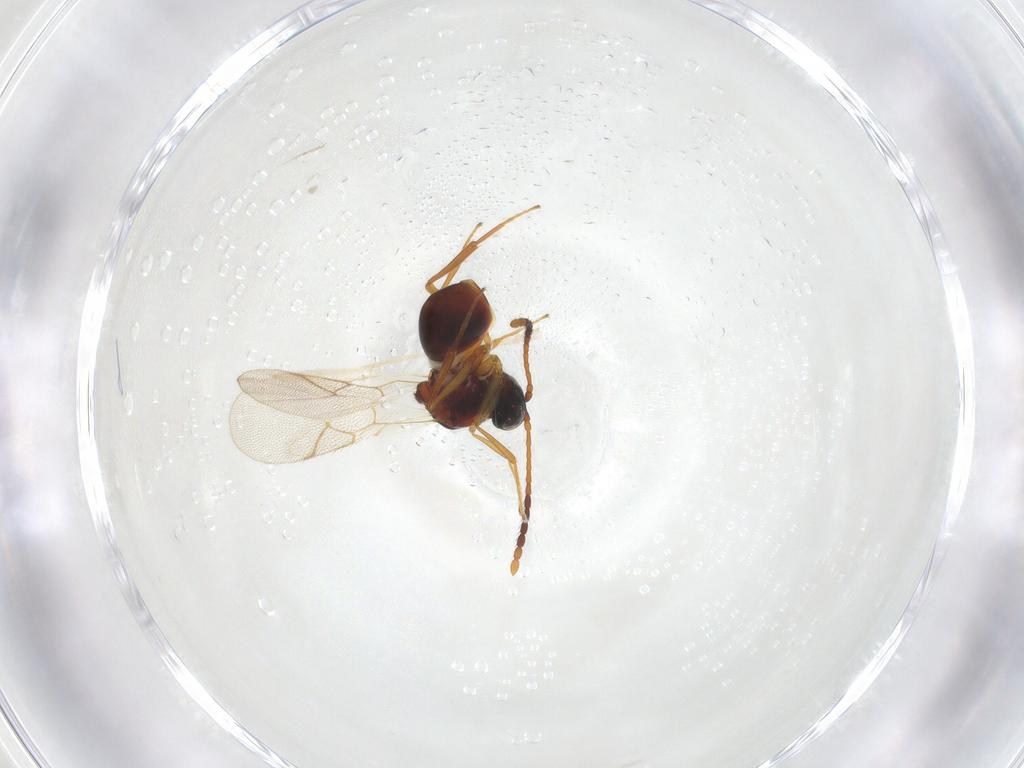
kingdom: Animalia
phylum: Arthropoda
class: Insecta
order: Hymenoptera
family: Figitidae
